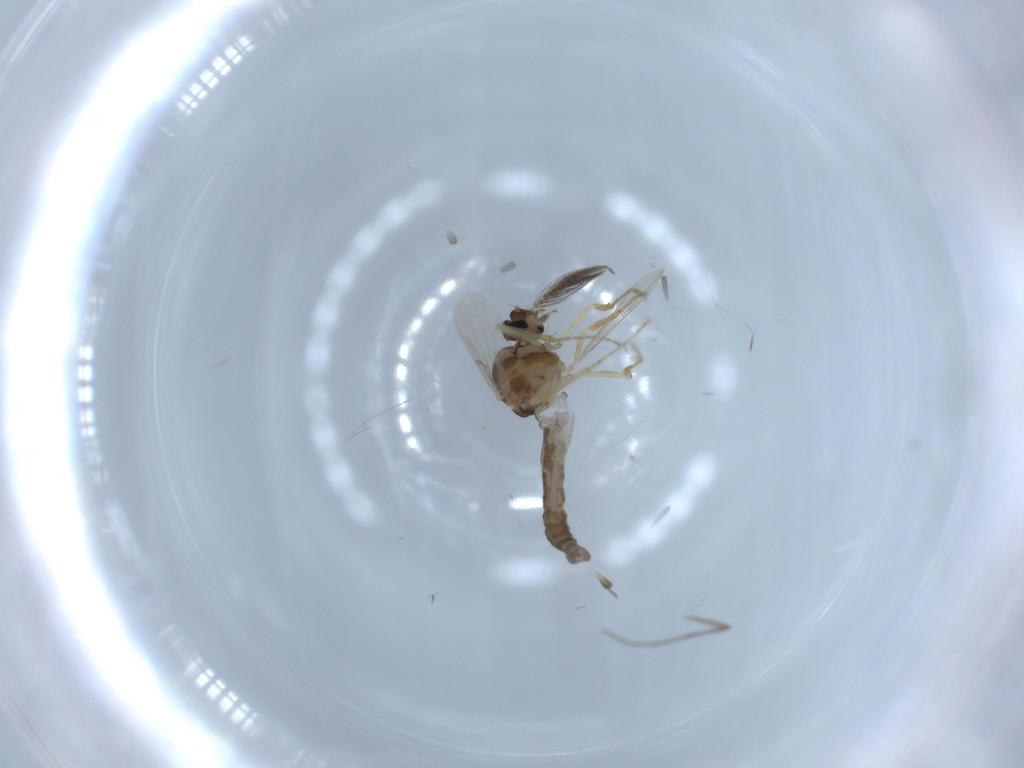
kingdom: Animalia
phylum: Arthropoda
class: Insecta
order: Diptera
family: Ceratopogonidae
